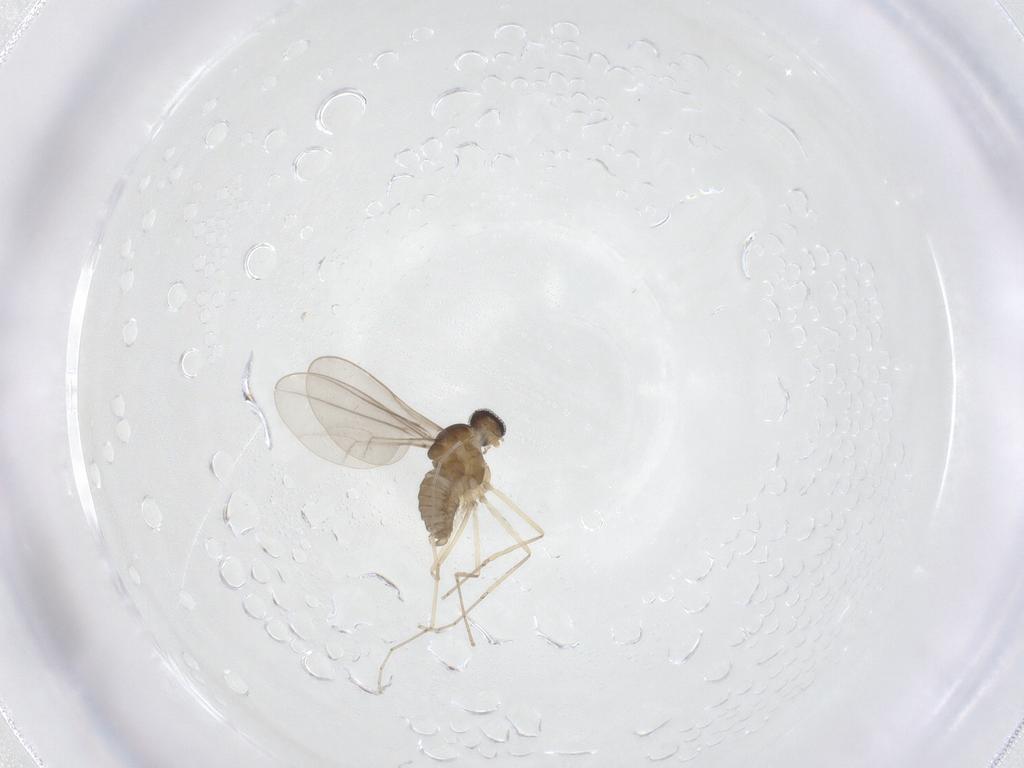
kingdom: Animalia
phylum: Arthropoda
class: Insecta
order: Diptera
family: Cecidomyiidae
